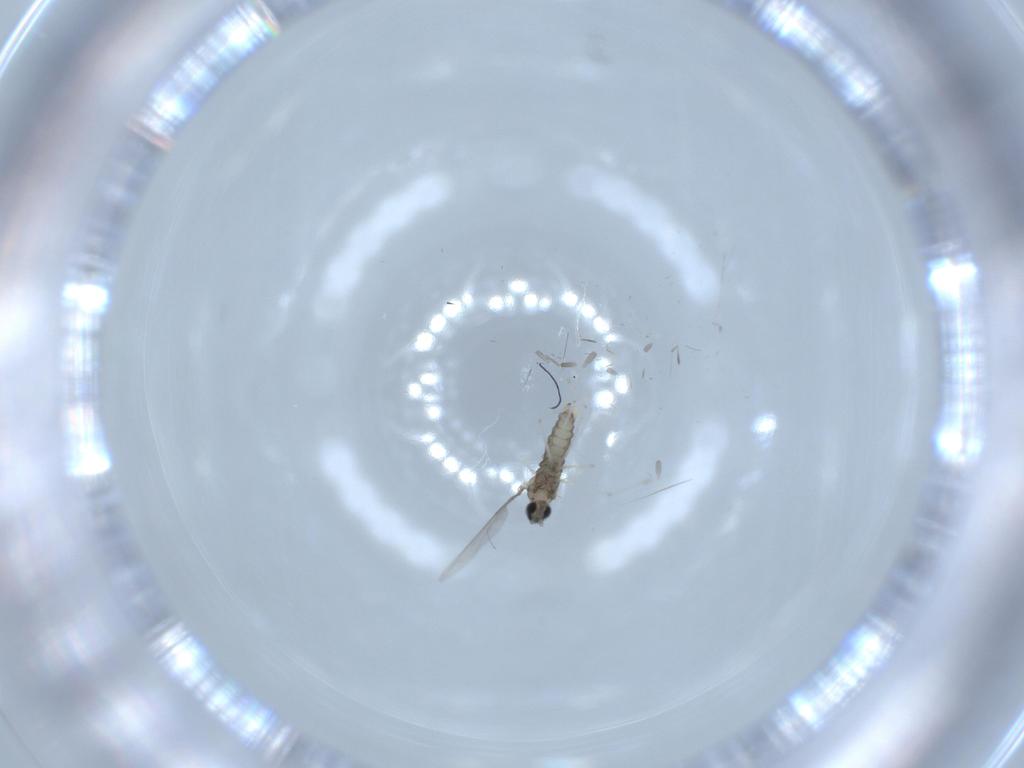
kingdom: Animalia
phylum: Arthropoda
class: Insecta
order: Diptera
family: Cecidomyiidae
